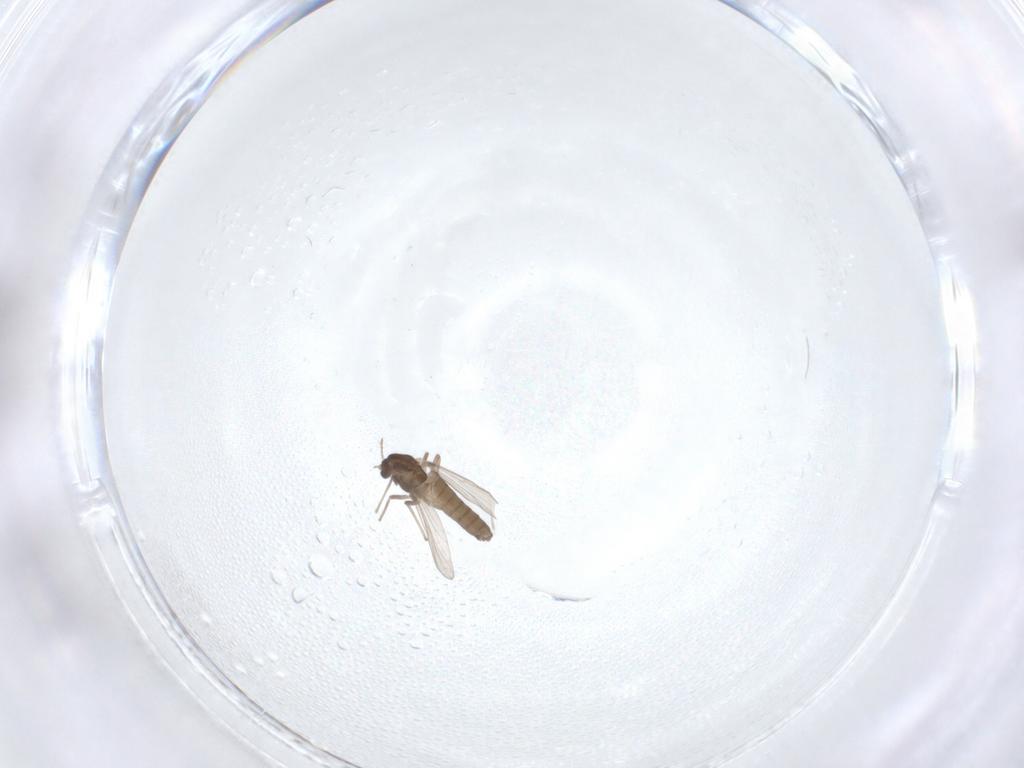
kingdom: Animalia
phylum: Arthropoda
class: Insecta
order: Diptera
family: Chironomidae
